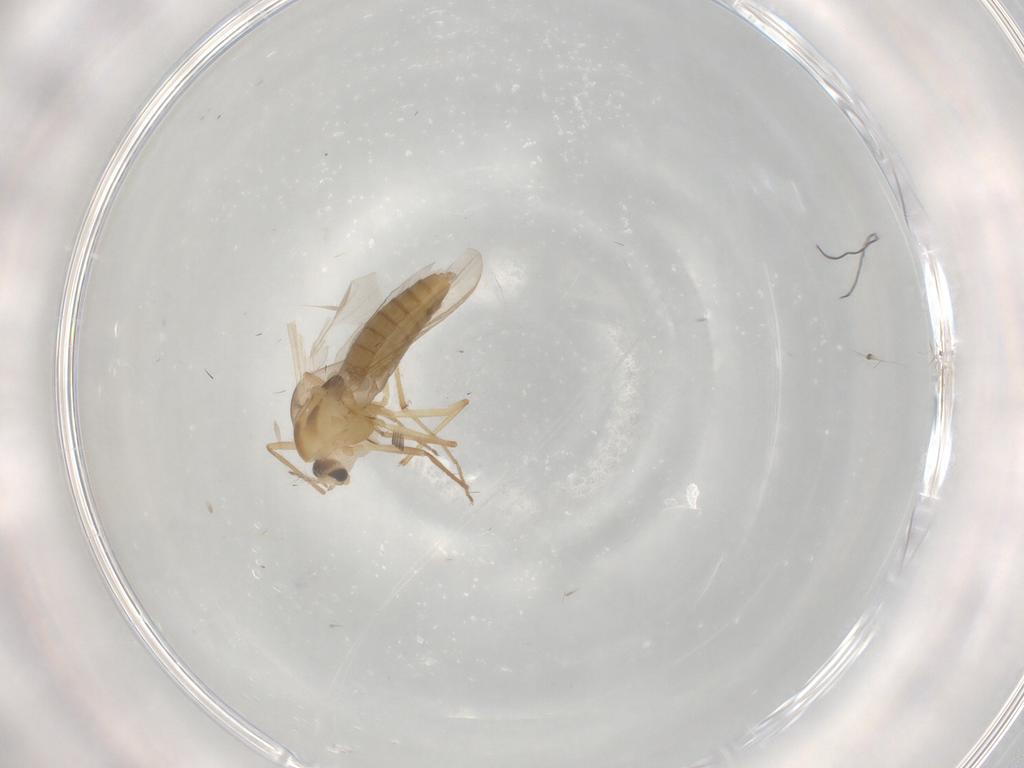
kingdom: Animalia
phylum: Arthropoda
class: Insecta
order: Diptera
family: Chironomidae
